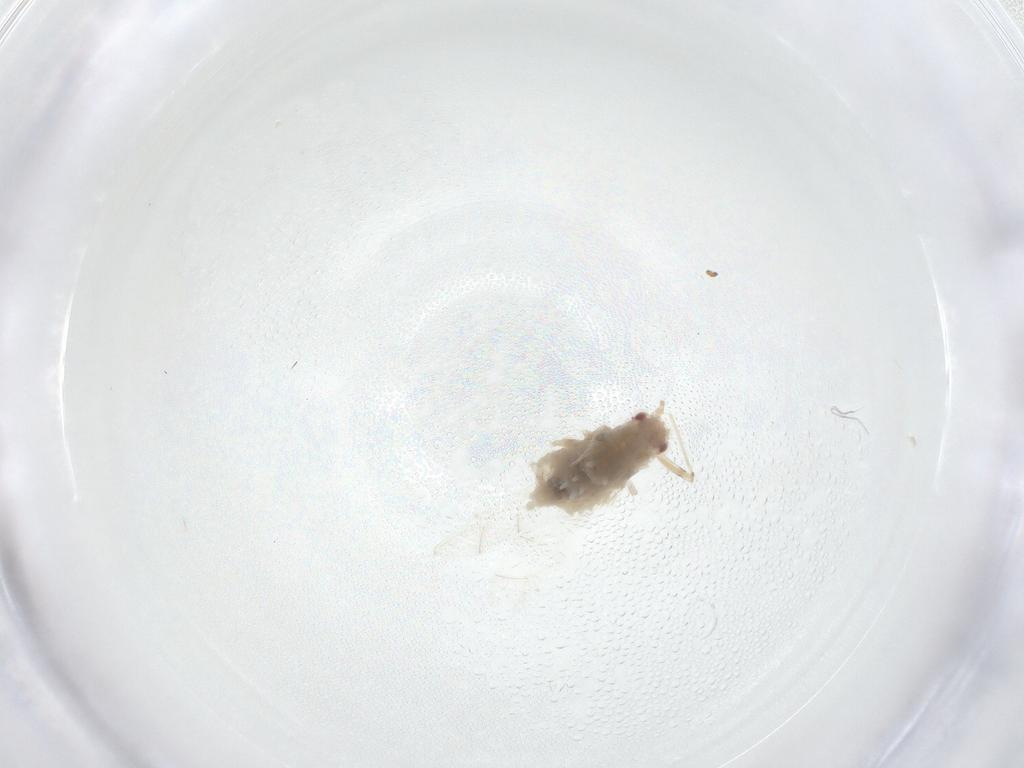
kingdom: Animalia
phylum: Arthropoda
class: Insecta
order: Hemiptera
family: Aphididae
